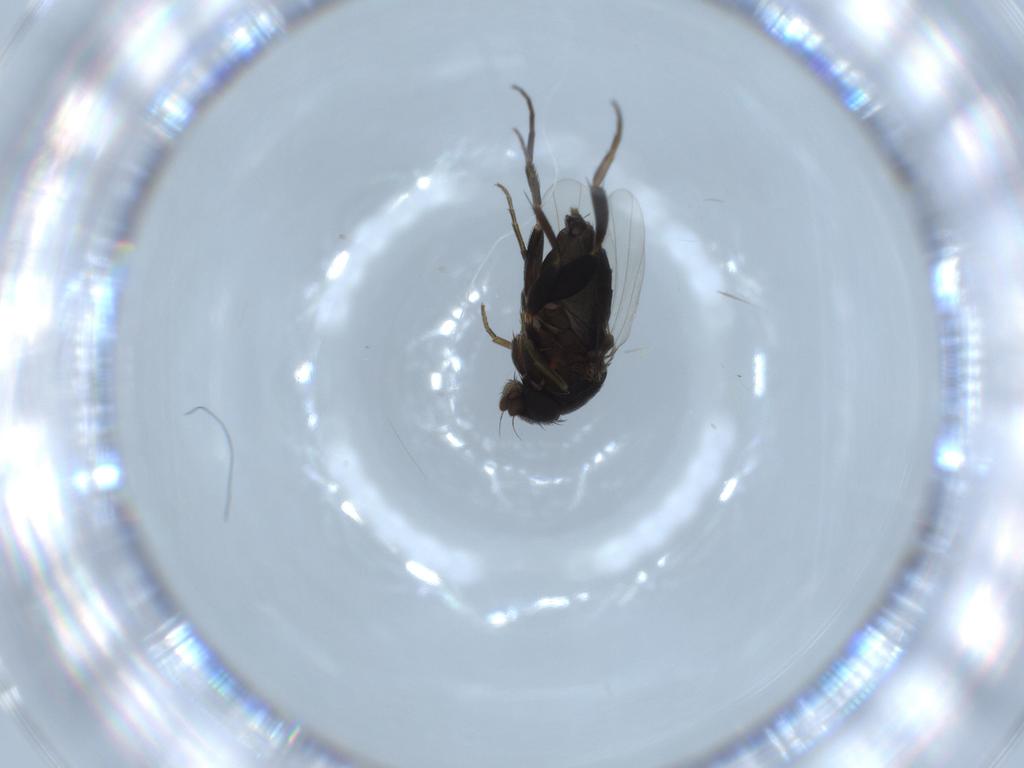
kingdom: Animalia
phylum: Arthropoda
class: Insecta
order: Diptera
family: Phoridae
